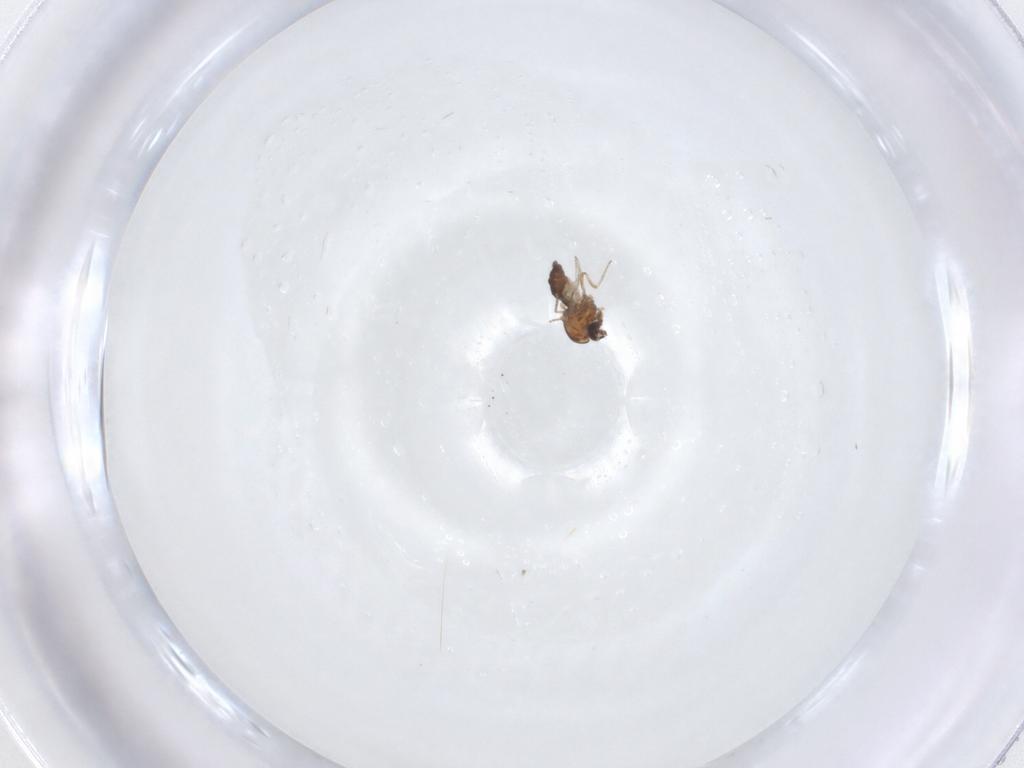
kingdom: Animalia
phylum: Arthropoda
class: Insecta
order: Diptera
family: Ceratopogonidae
